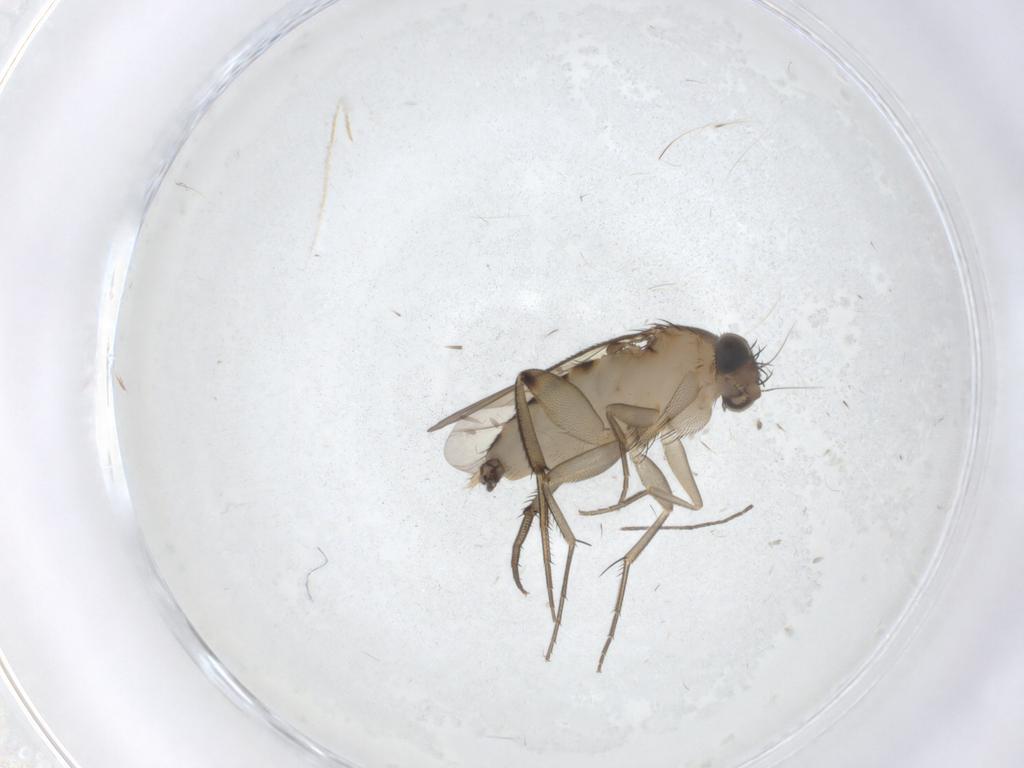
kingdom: Animalia
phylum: Arthropoda
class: Insecta
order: Diptera
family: Phoridae
